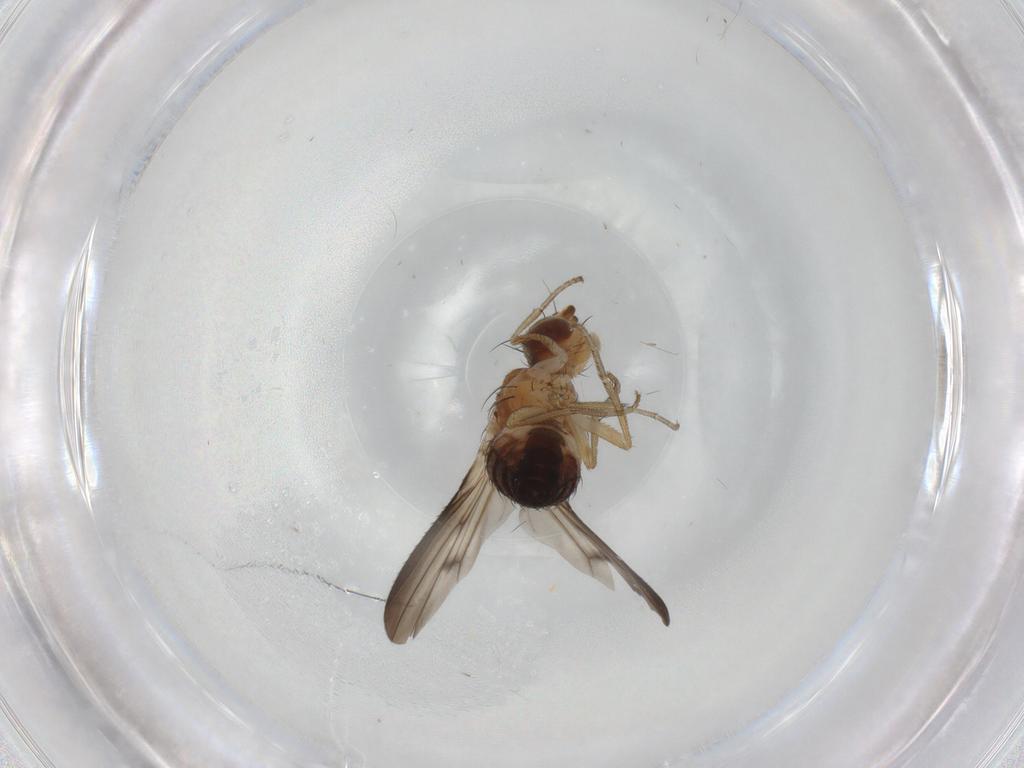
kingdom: Animalia
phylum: Arthropoda
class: Insecta
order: Diptera
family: Heleomyzidae
